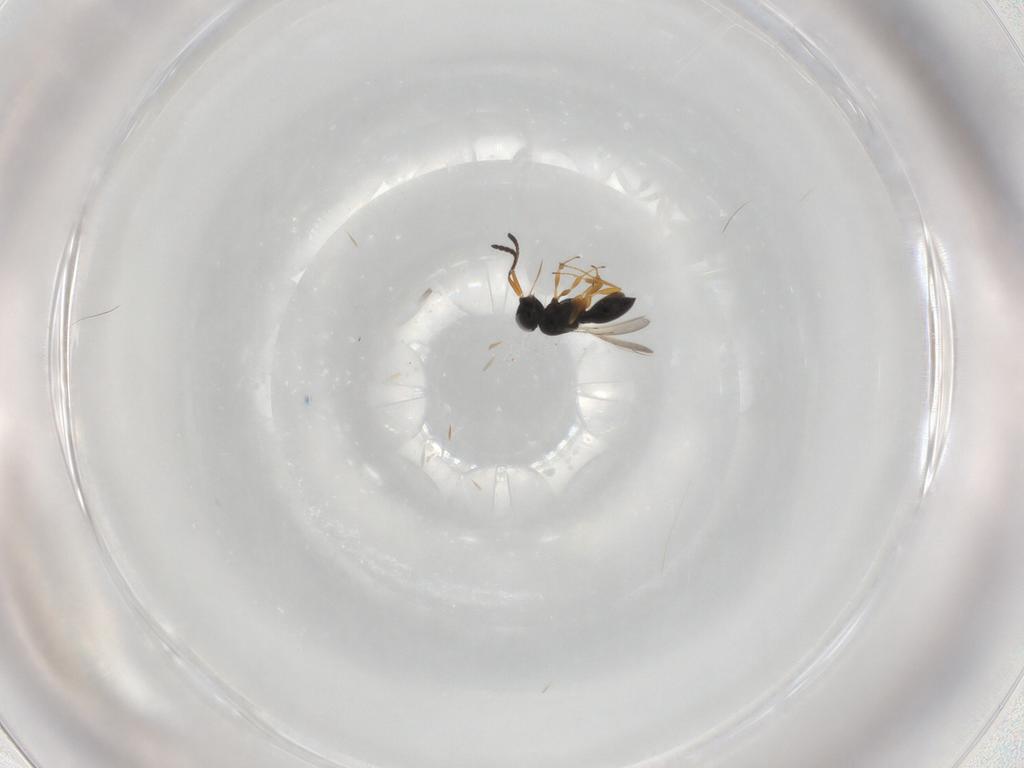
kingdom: Animalia
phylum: Arthropoda
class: Insecta
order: Hymenoptera
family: Scelionidae
